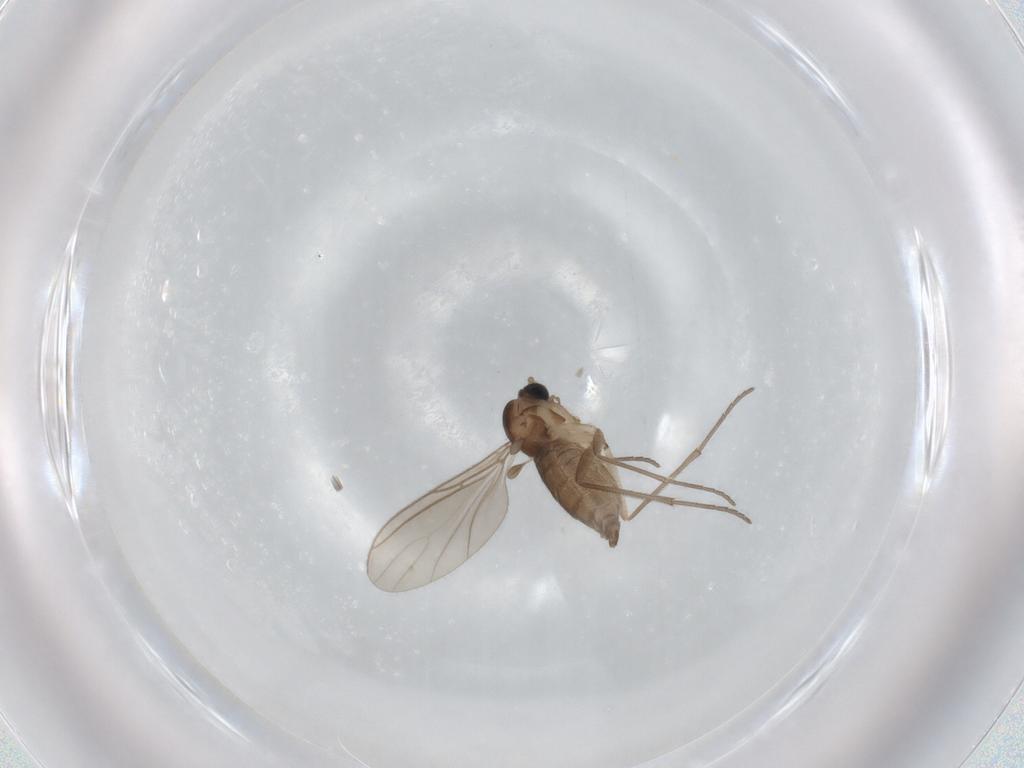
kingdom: Animalia
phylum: Arthropoda
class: Insecta
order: Diptera
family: Sciaridae
